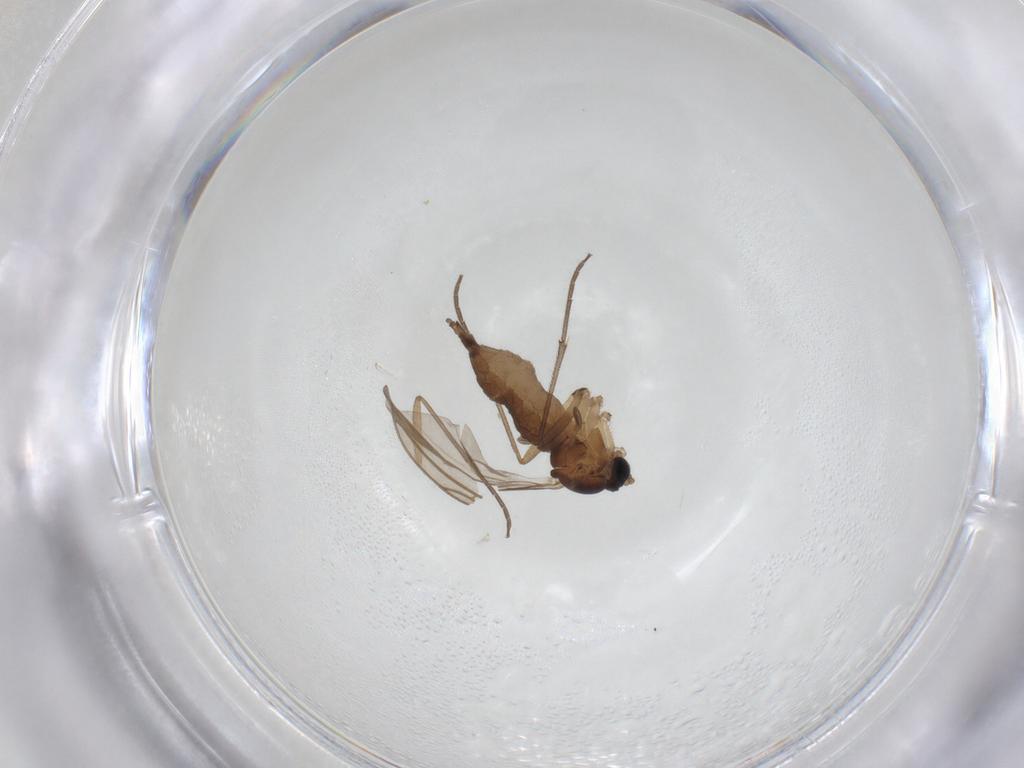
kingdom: Animalia
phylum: Arthropoda
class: Insecta
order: Diptera
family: Sciaridae
